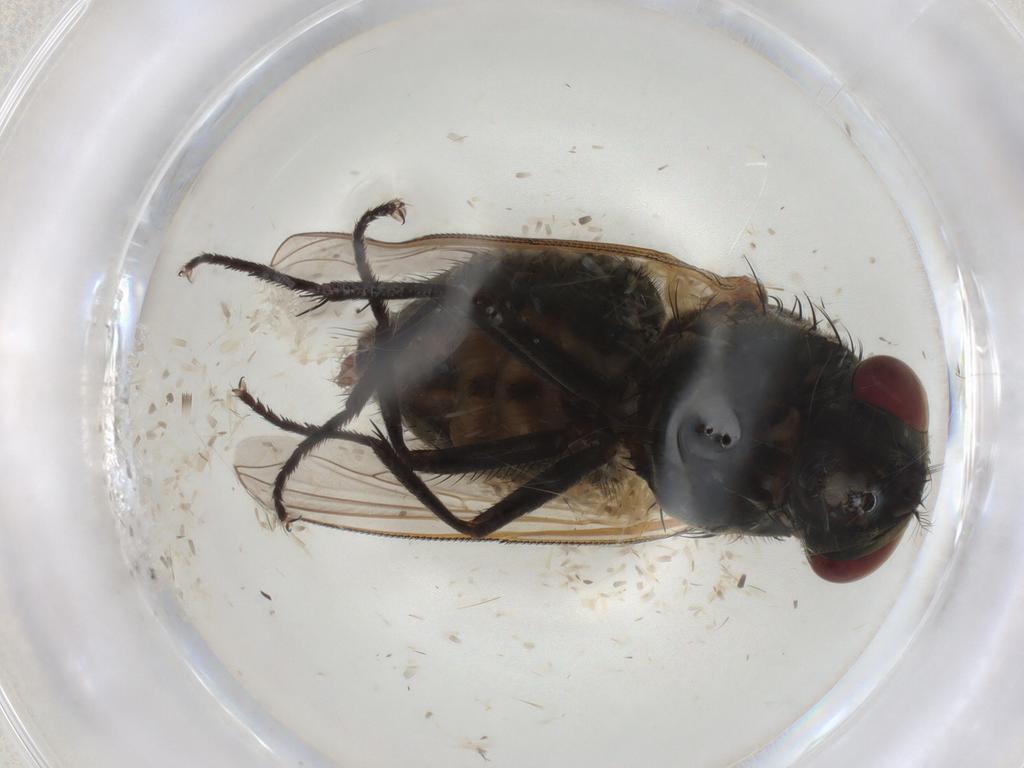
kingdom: Animalia
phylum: Arthropoda
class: Insecta
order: Diptera
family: Muscidae
